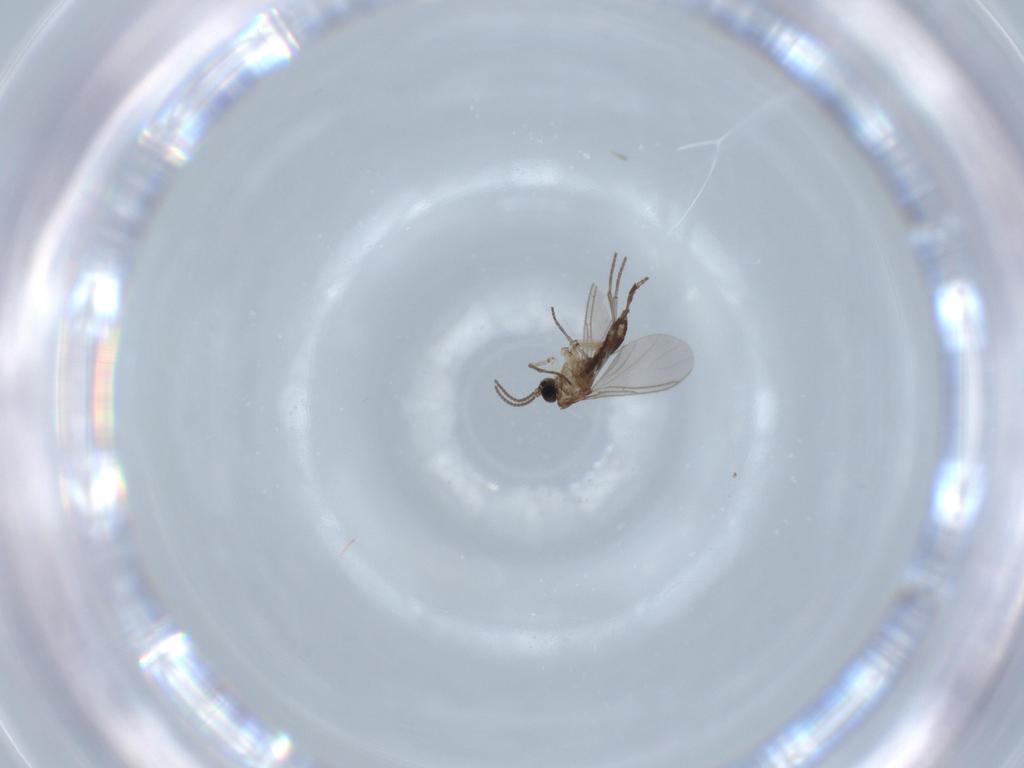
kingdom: Animalia
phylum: Arthropoda
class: Insecta
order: Diptera
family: Sciaridae
